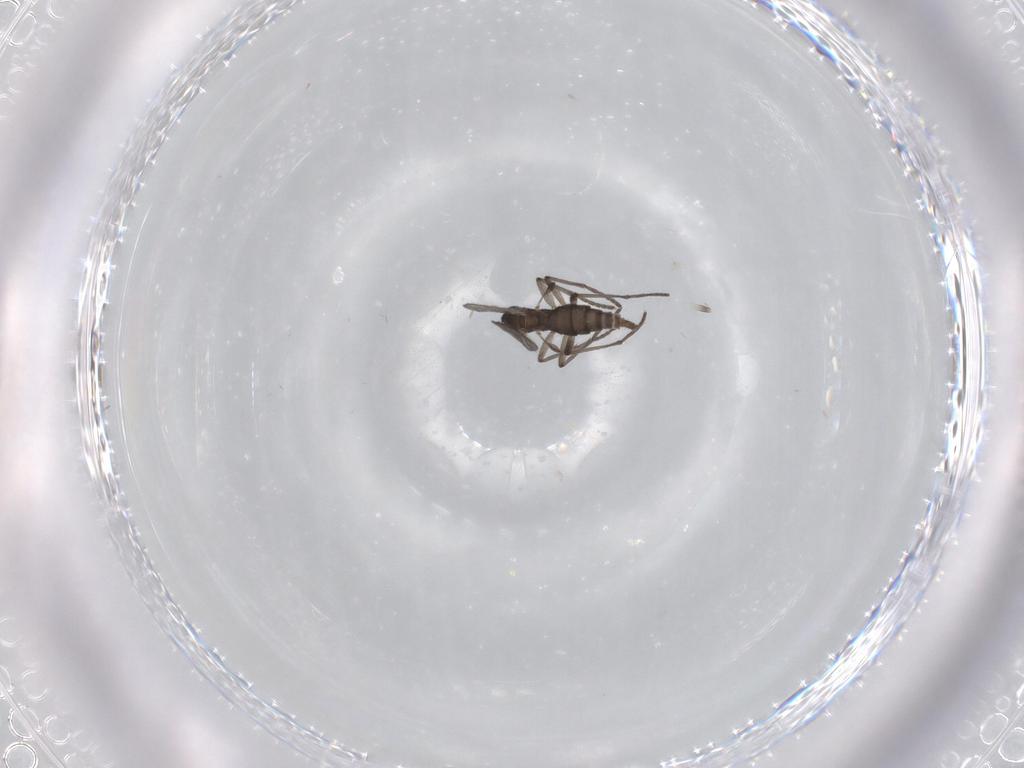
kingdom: Animalia
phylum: Arthropoda
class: Insecta
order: Diptera
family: Sciaridae
